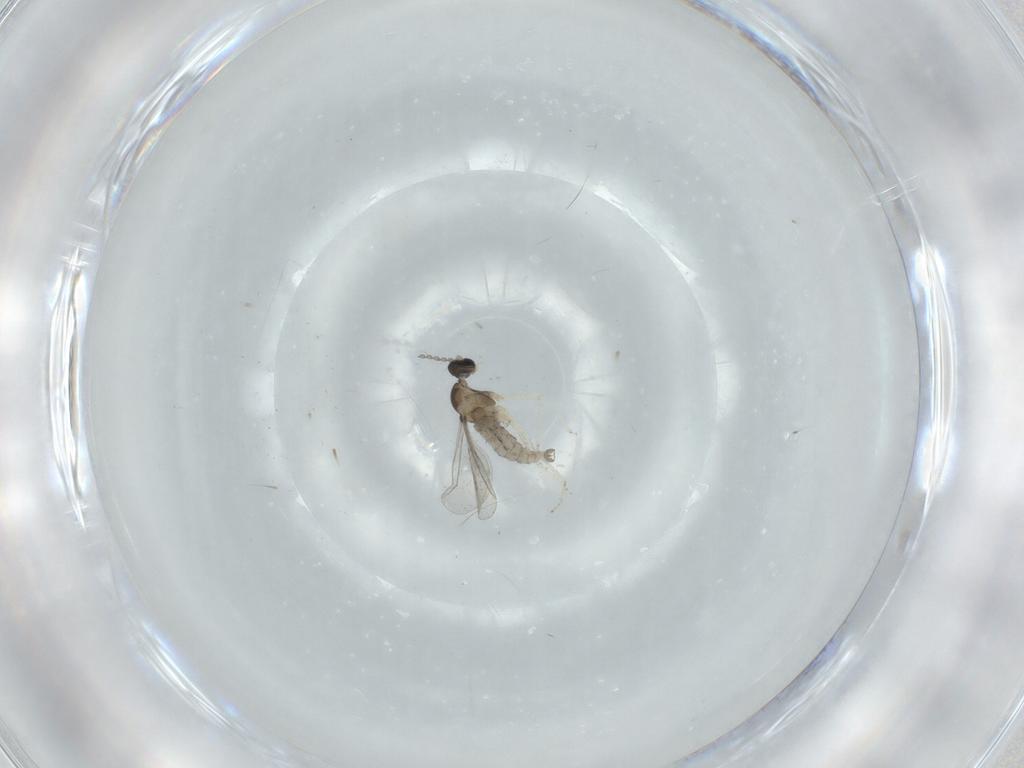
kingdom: Animalia
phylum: Arthropoda
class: Insecta
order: Diptera
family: Cecidomyiidae
